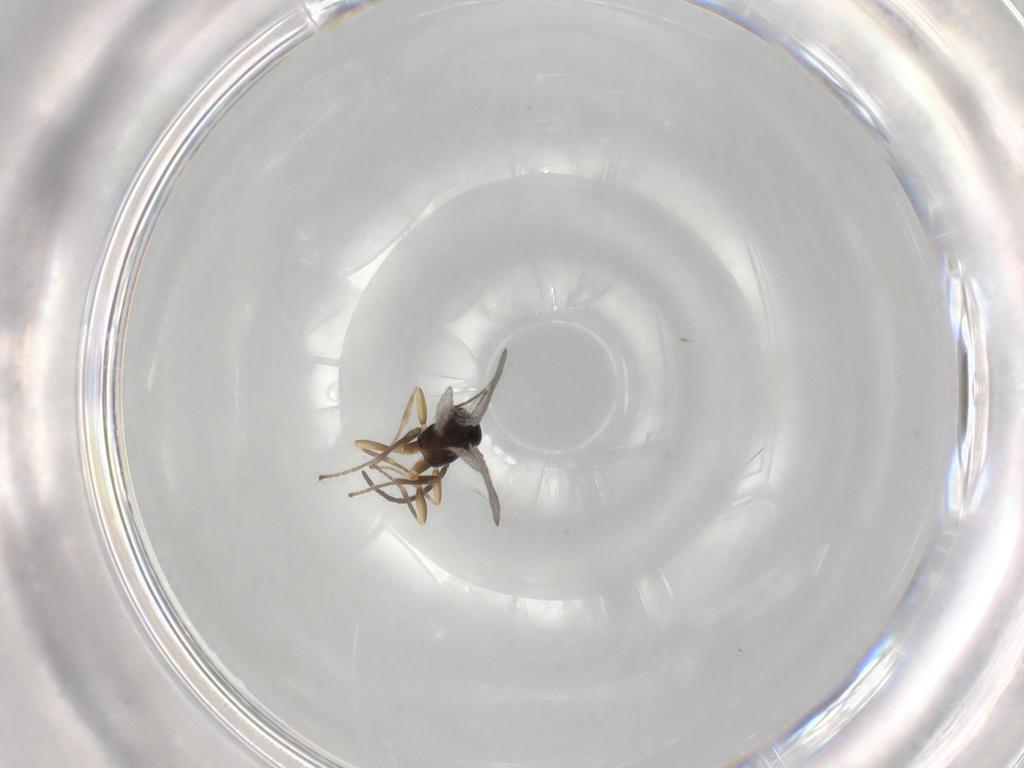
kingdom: Animalia
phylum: Arthropoda
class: Insecta
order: Hymenoptera
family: Braconidae
